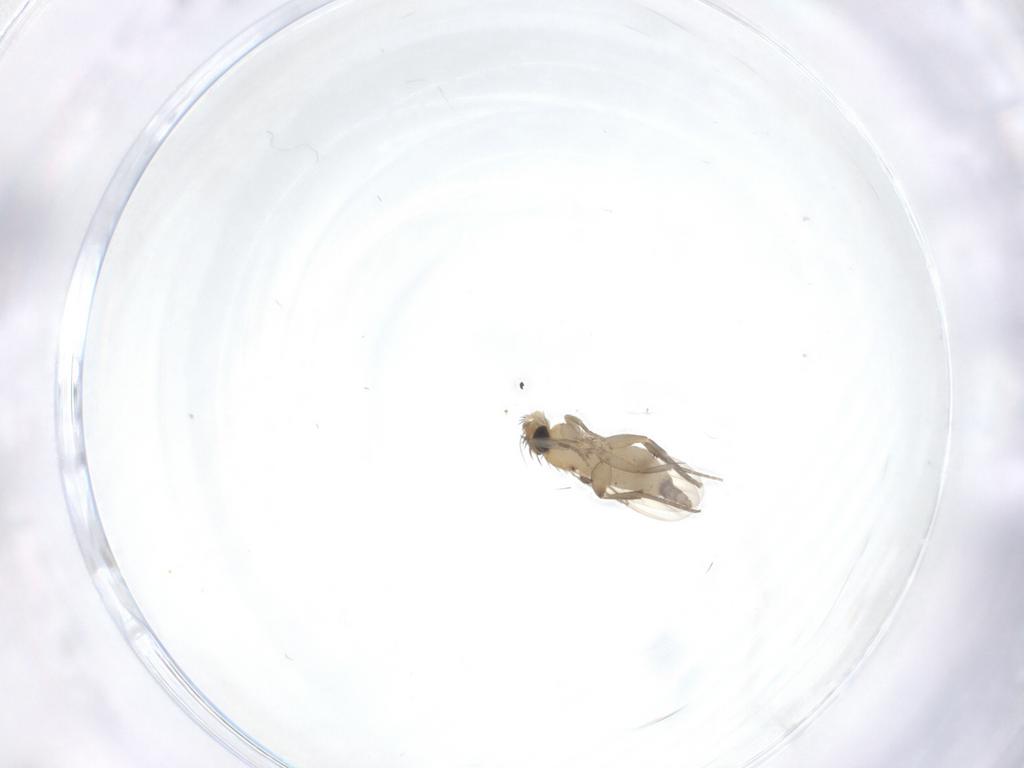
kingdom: Animalia
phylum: Arthropoda
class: Insecta
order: Diptera
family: Phoridae
